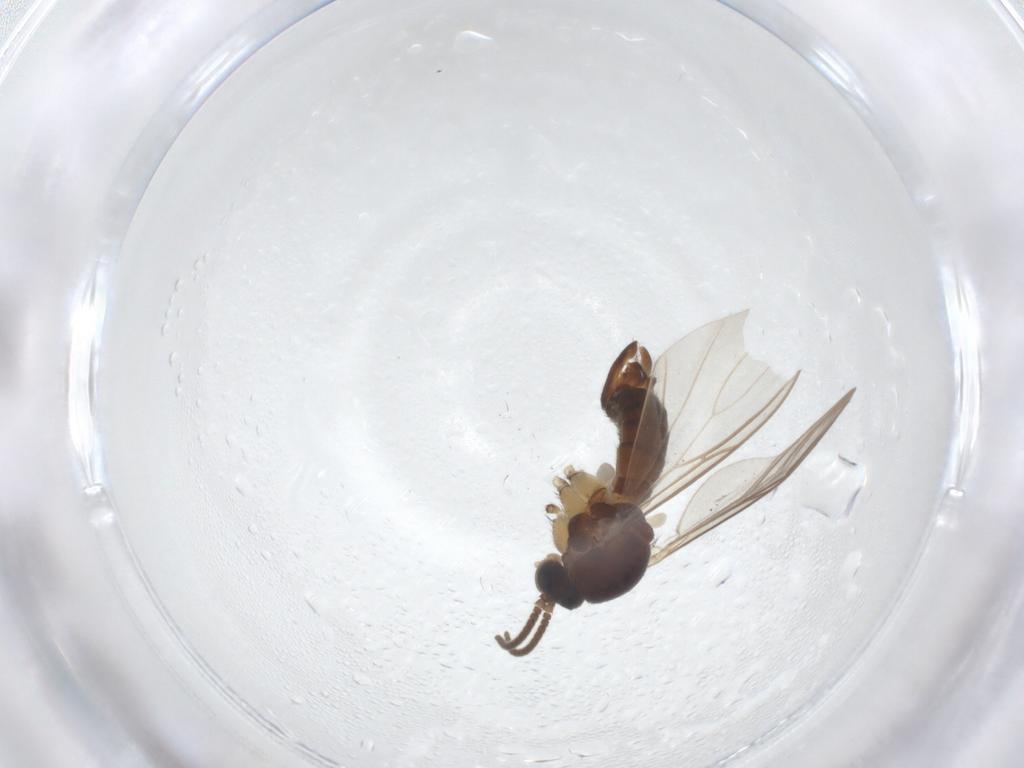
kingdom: Animalia
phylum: Arthropoda
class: Insecta
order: Diptera
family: Mycetophilidae
